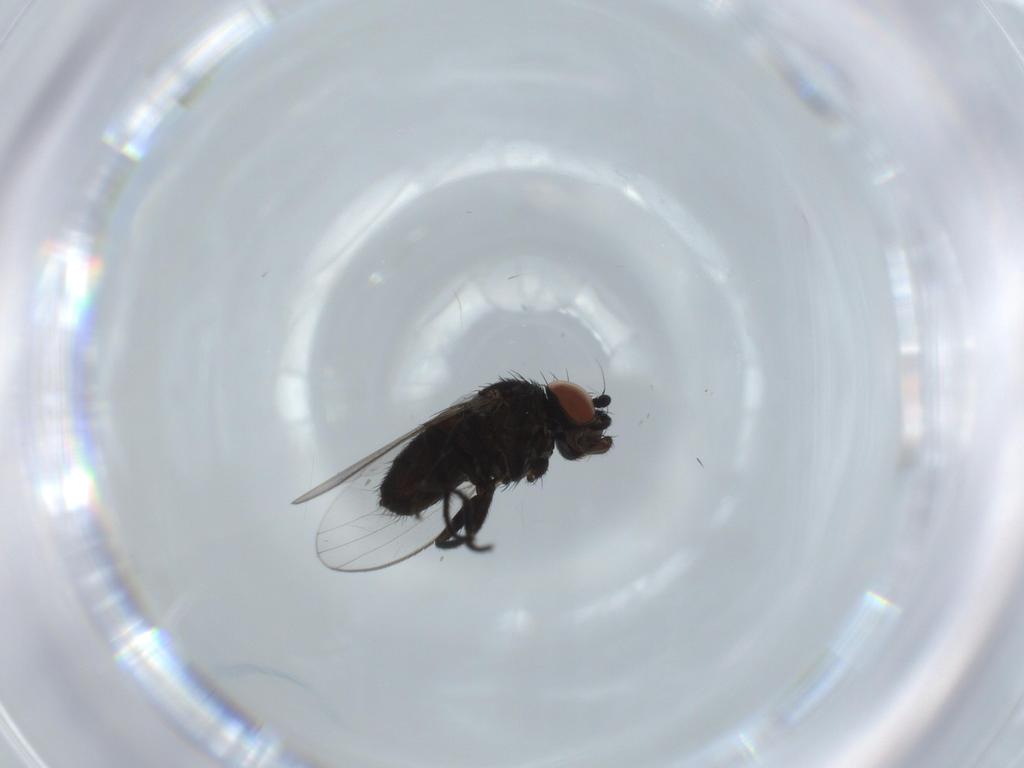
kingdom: Animalia
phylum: Arthropoda
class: Insecta
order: Diptera
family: Milichiidae
